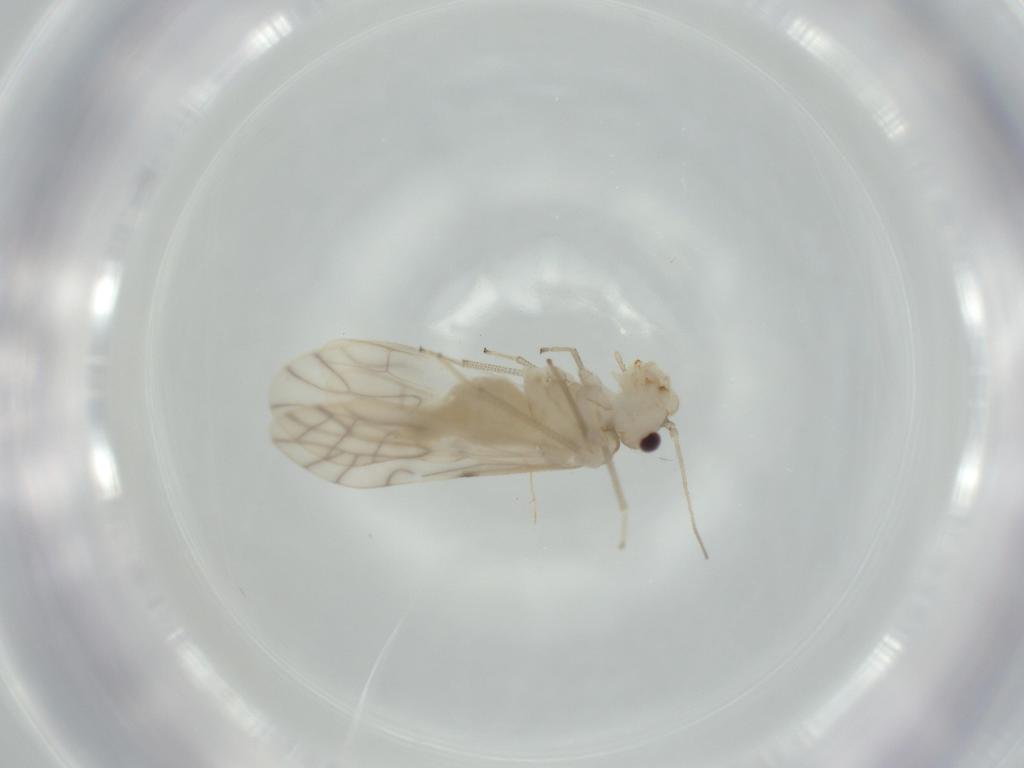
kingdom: Animalia
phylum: Arthropoda
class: Insecta
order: Psocodea
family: Caeciliusidae
